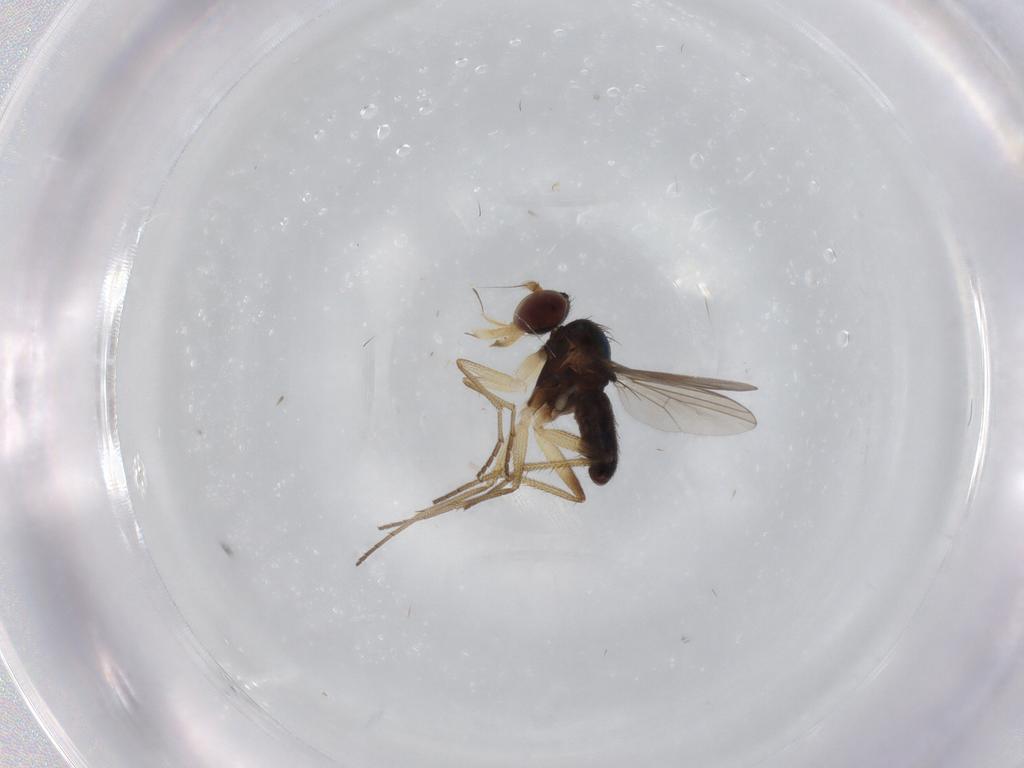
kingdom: Animalia
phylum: Arthropoda
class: Insecta
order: Diptera
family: Dolichopodidae
